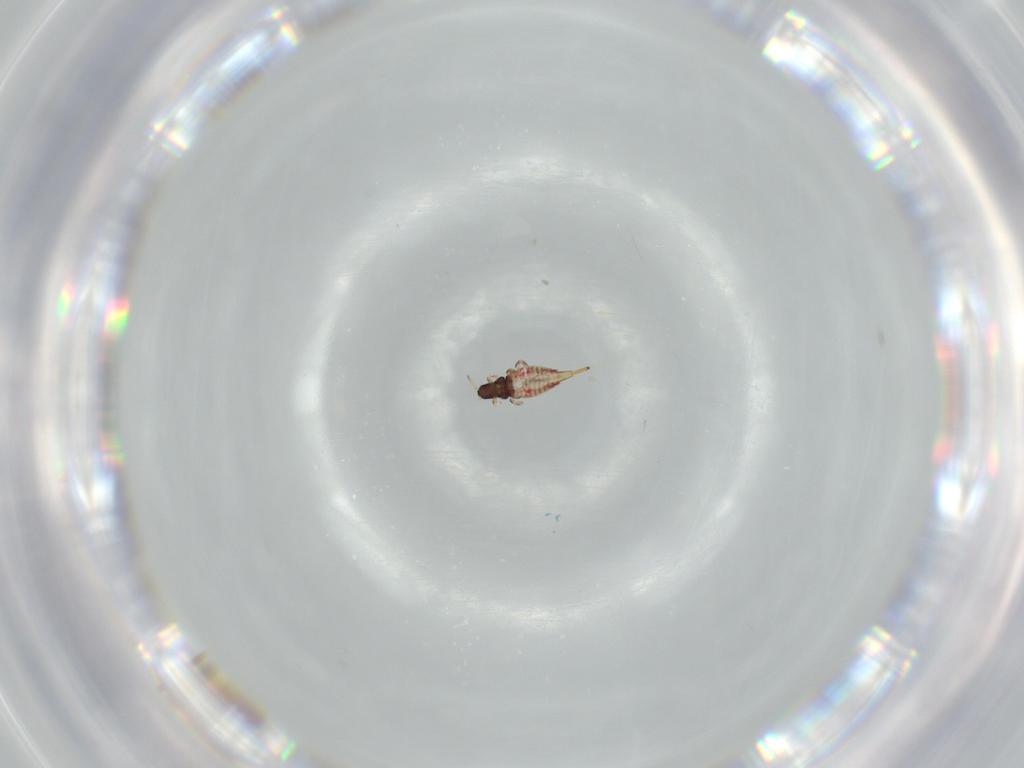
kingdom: Animalia
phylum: Arthropoda
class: Insecta
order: Thysanoptera
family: Phlaeothripidae
